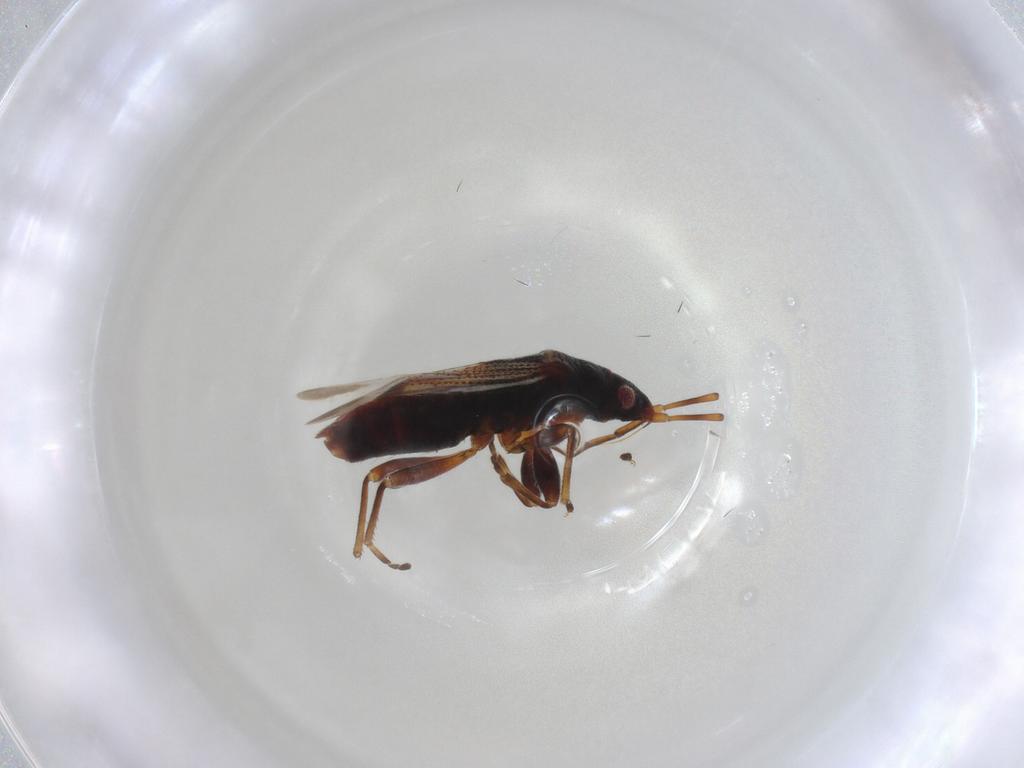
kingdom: Animalia
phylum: Arthropoda
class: Insecta
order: Hemiptera
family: Rhyparochromidae
